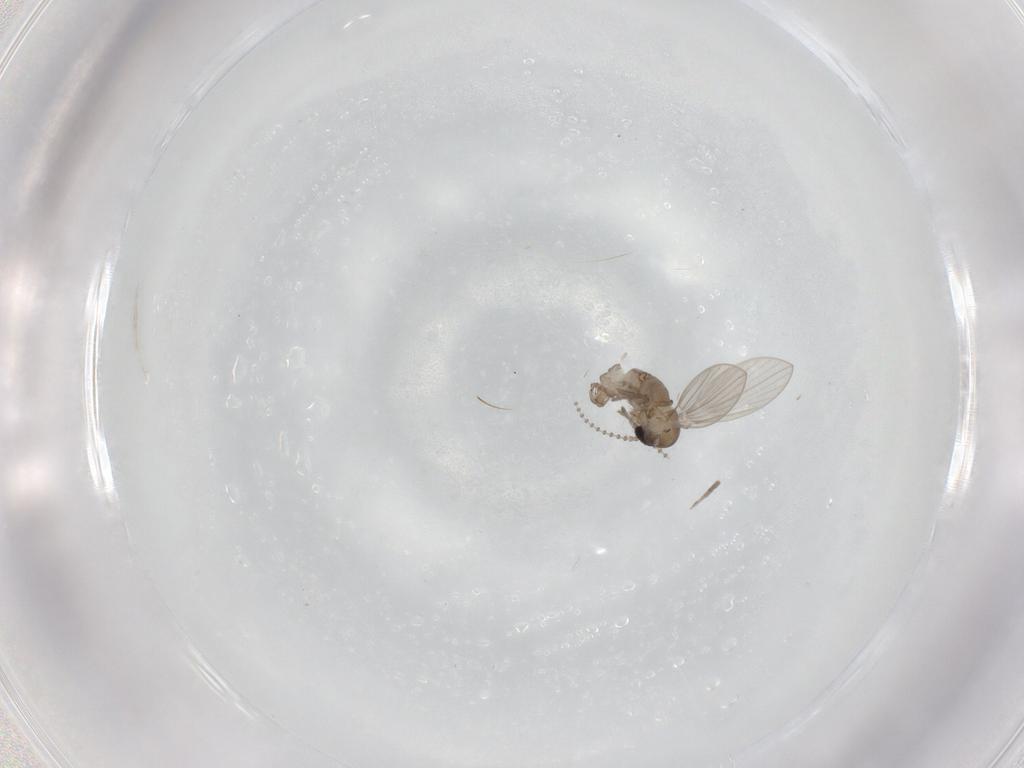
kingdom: Animalia
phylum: Arthropoda
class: Insecta
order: Diptera
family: Psychodidae
